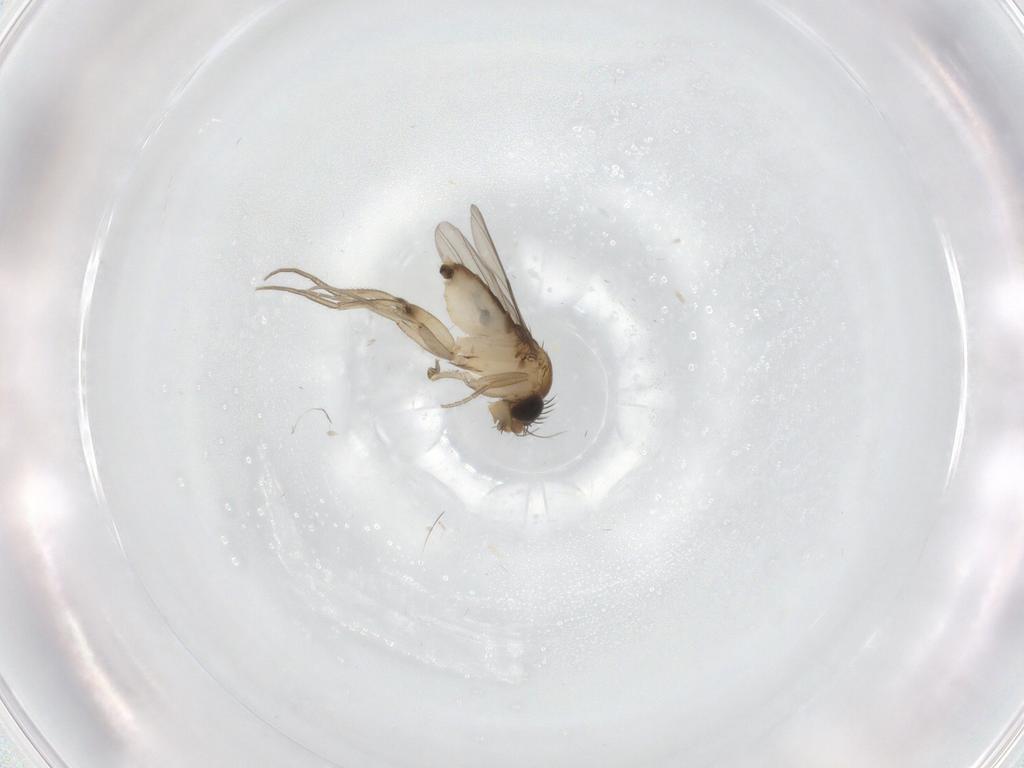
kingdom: Animalia
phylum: Arthropoda
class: Insecta
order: Diptera
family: Phoridae
